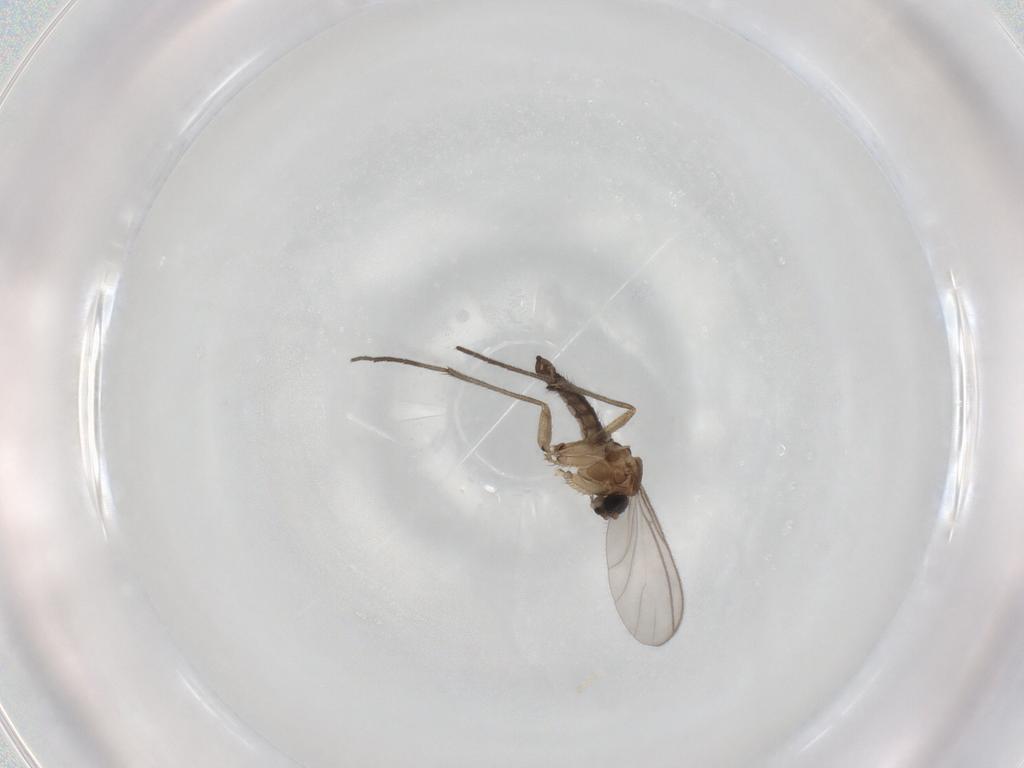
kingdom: Animalia
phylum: Arthropoda
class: Insecta
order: Diptera
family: Sciaridae
